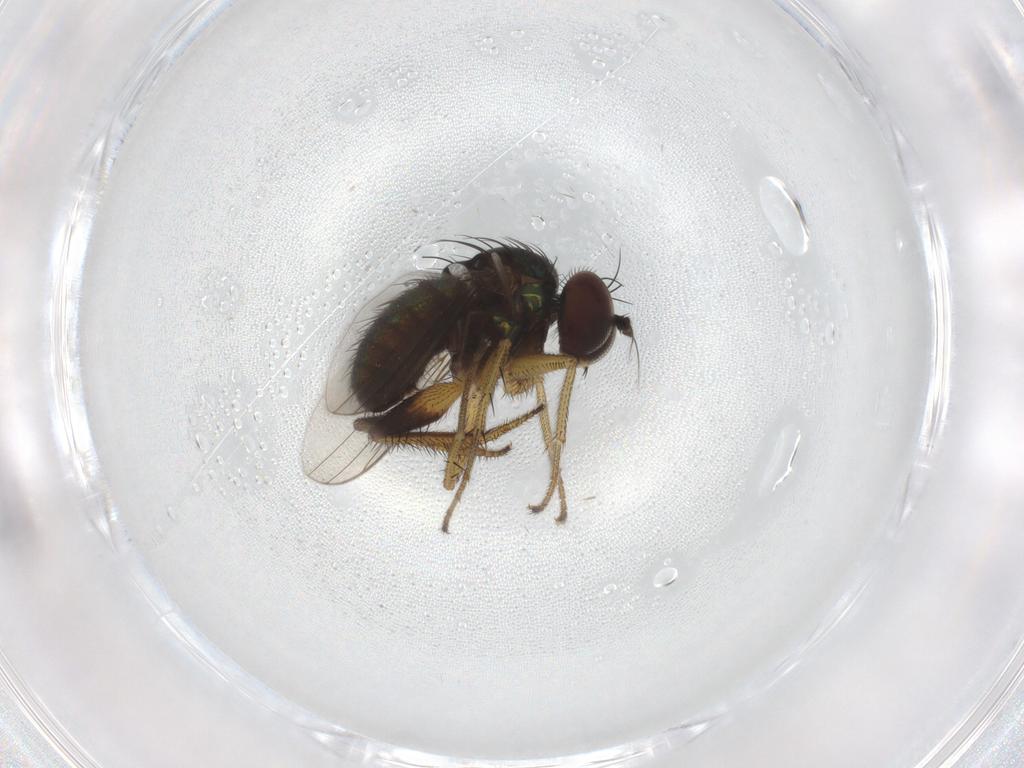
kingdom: Animalia
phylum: Arthropoda
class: Insecta
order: Diptera
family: Dolichopodidae
